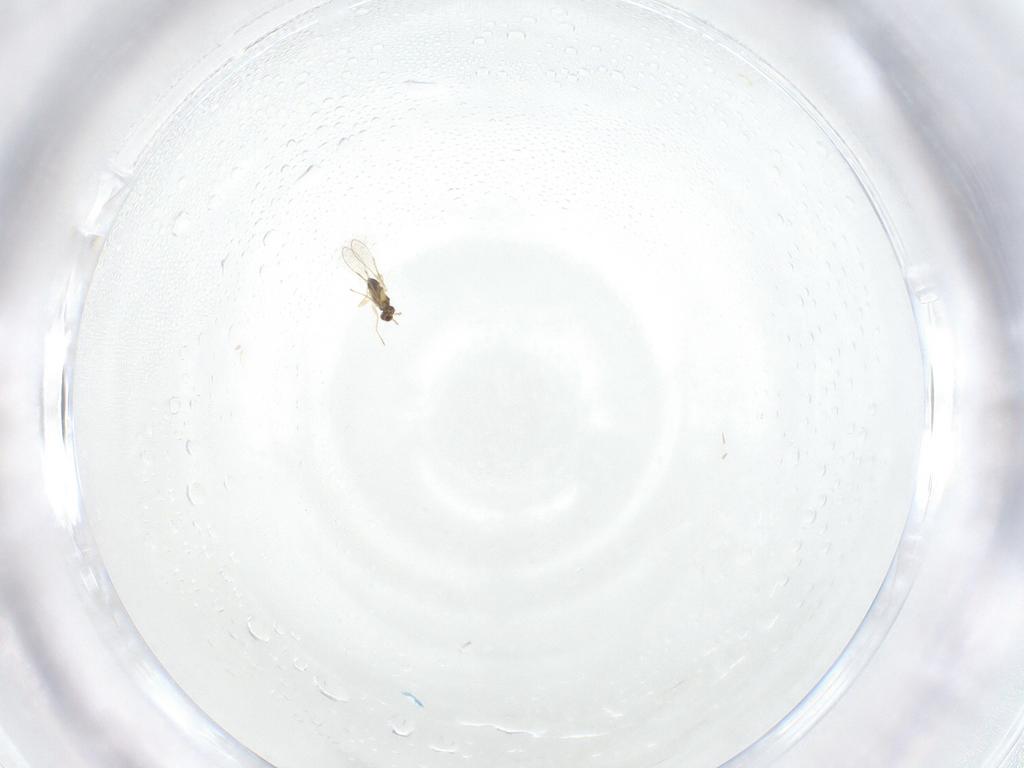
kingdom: Animalia
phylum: Arthropoda
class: Insecta
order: Hymenoptera
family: Mymaridae
